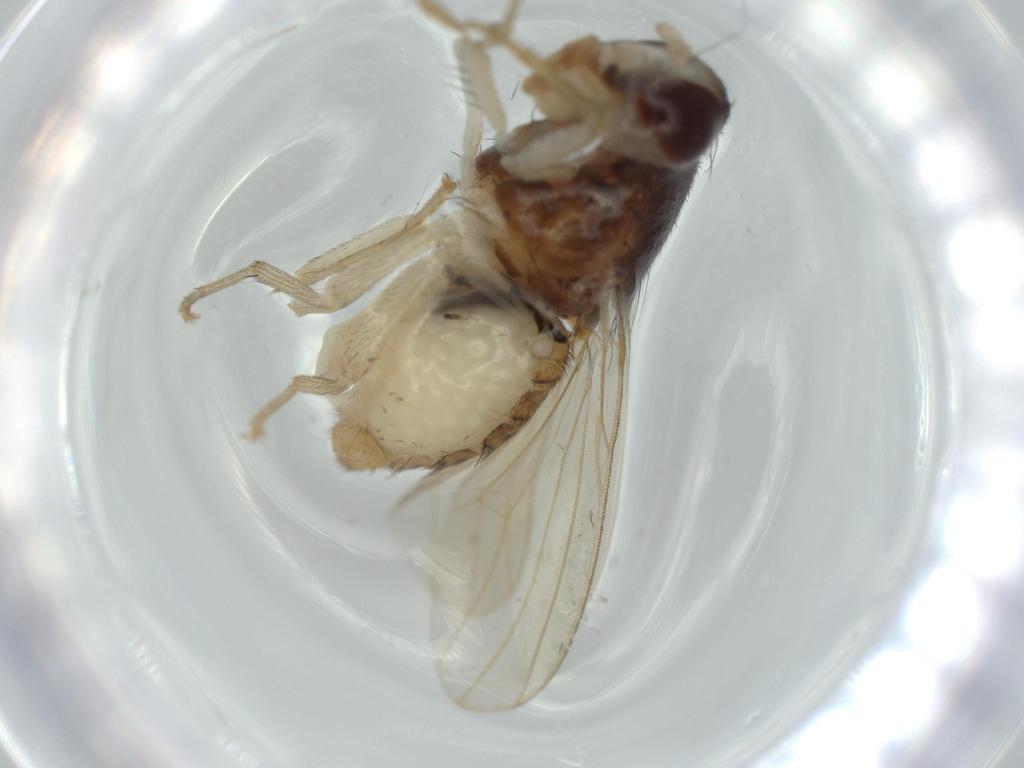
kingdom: Animalia
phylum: Arthropoda
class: Insecta
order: Diptera
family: Lauxaniidae
